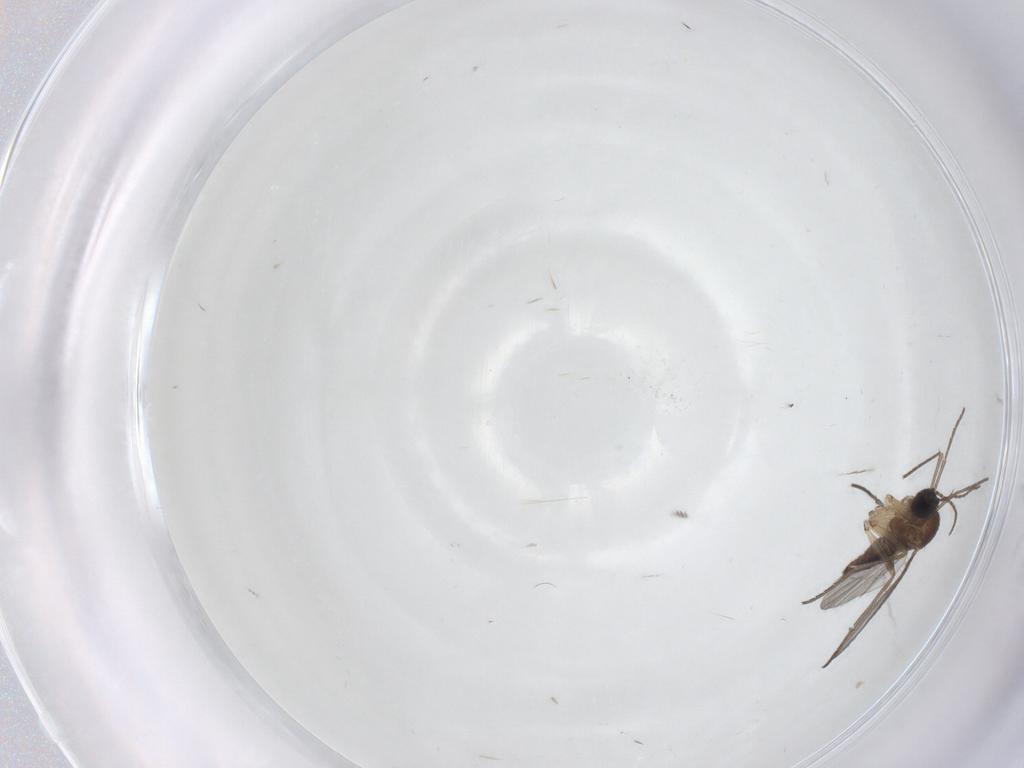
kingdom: Animalia
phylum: Arthropoda
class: Insecta
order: Diptera
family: Sciaridae
